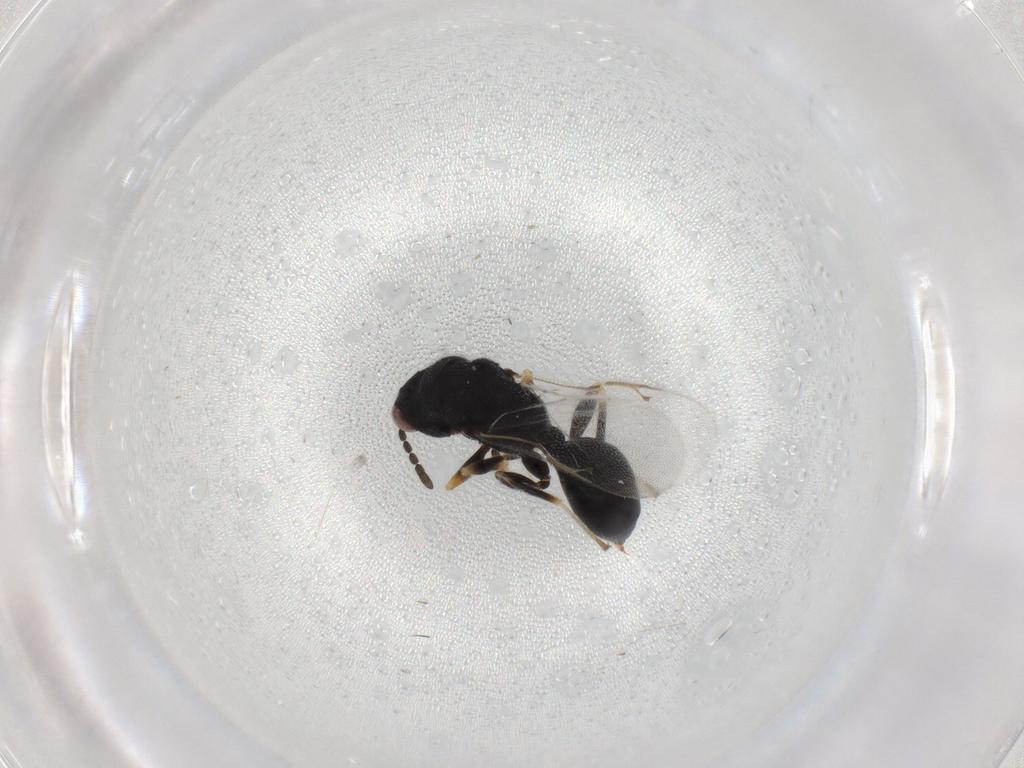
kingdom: Animalia
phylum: Arthropoda
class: Insecta
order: Hymenoptera
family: Eurytomidae
